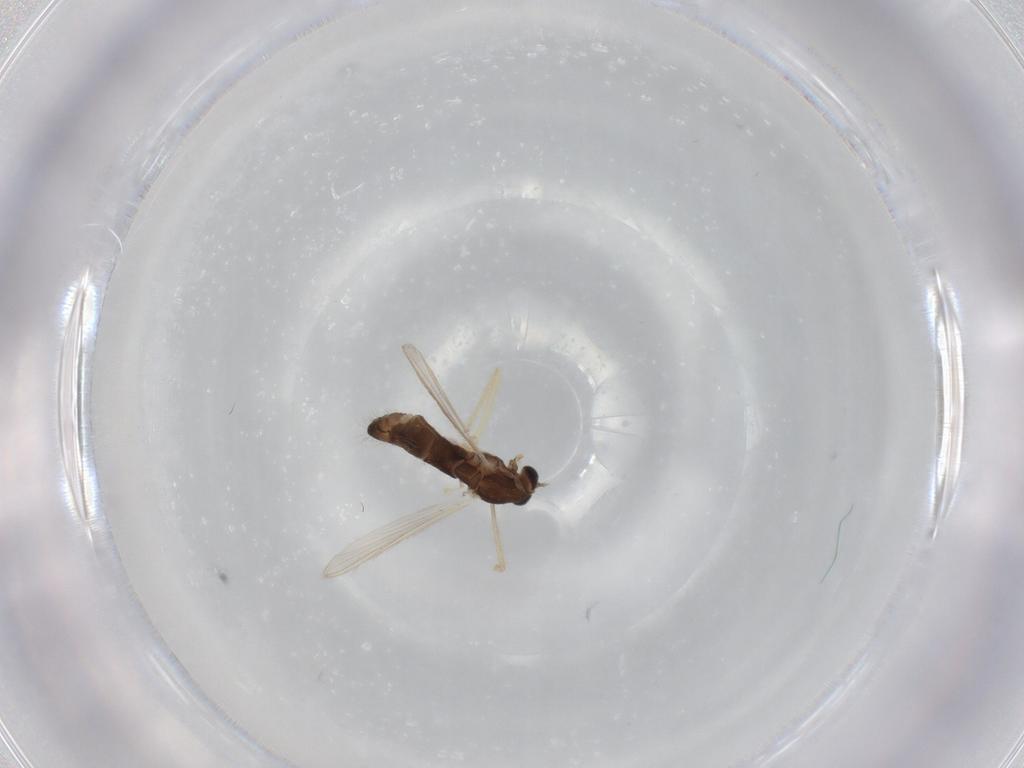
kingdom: Animalia
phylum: Arthropoda
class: Insecta
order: Diptera
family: Chironomidae
